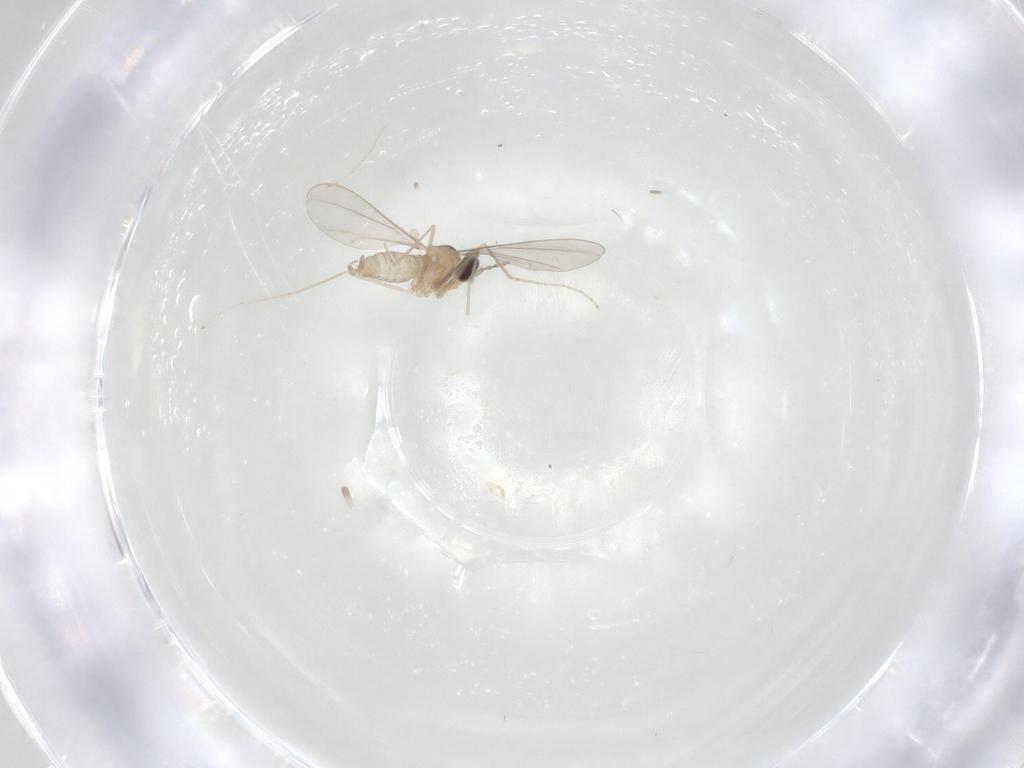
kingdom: Animalia
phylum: Arthropoda
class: Insecta
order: Diptera
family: Cecidomyiidae
